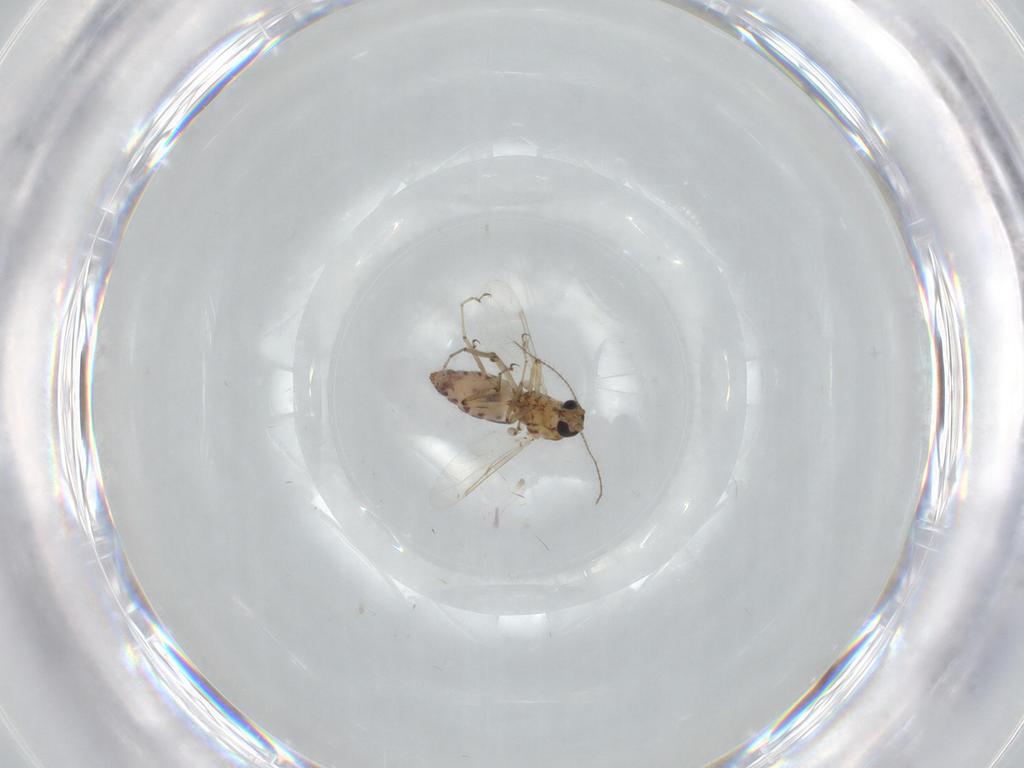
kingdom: Animalia
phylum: Arthropoda
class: Insecta
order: Diptera
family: Ceratopogonidae
